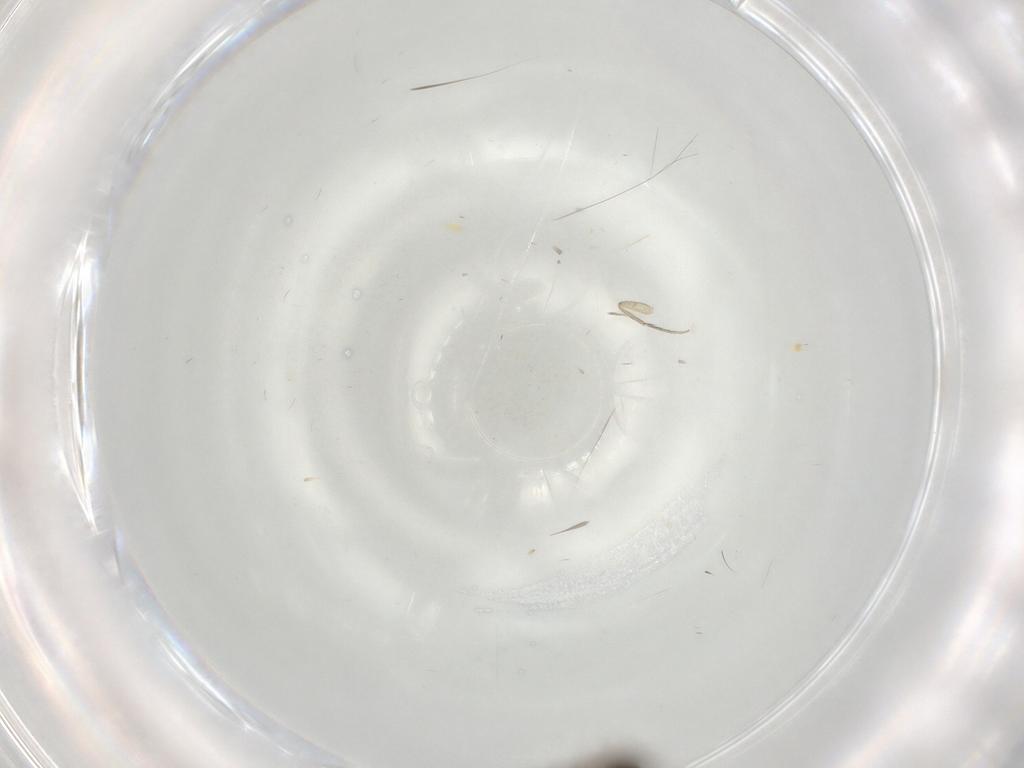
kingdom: Animalia
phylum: Arthropoda
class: Insecta
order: Diptera
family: Phoridae
